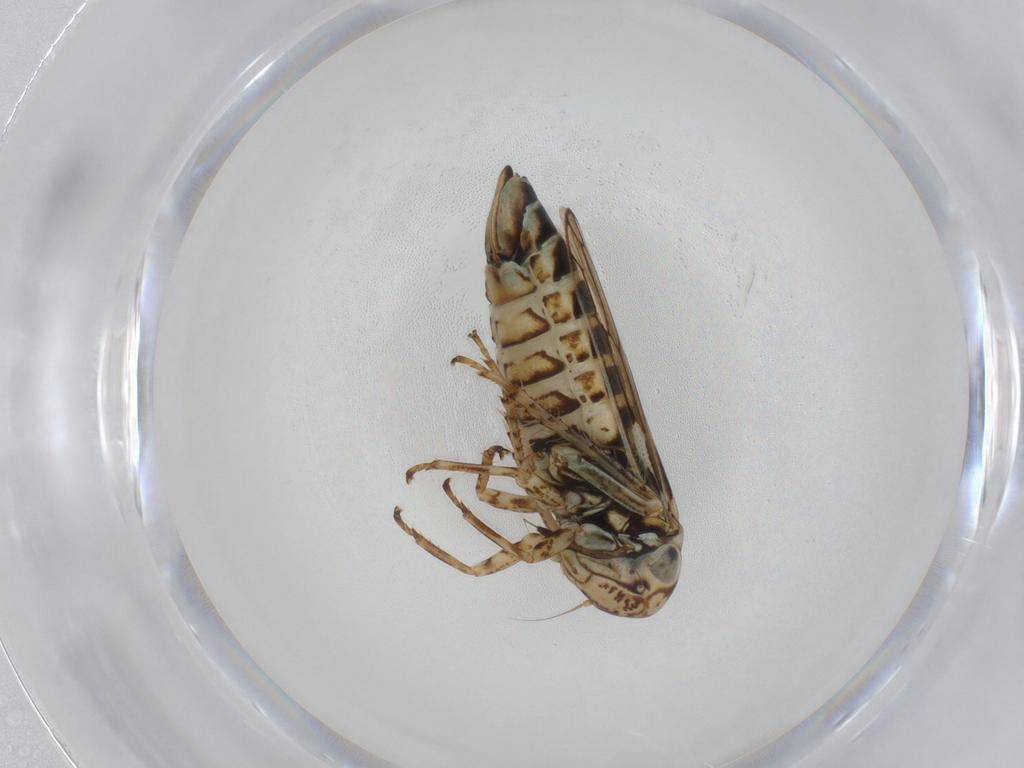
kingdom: Animalia
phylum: Arthropoda
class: Insecta
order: Hemiptera
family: Cicadellidae
